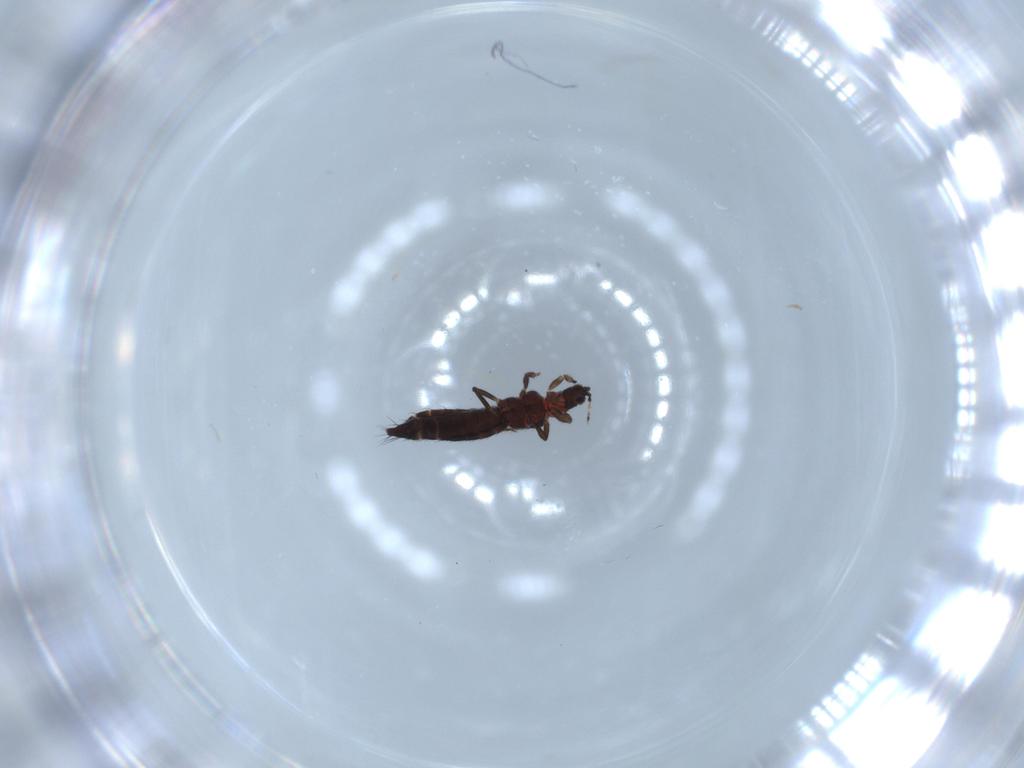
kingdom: Animalia
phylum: Arthropoda
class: Insecta
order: Thysanoptera
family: Thripidae
